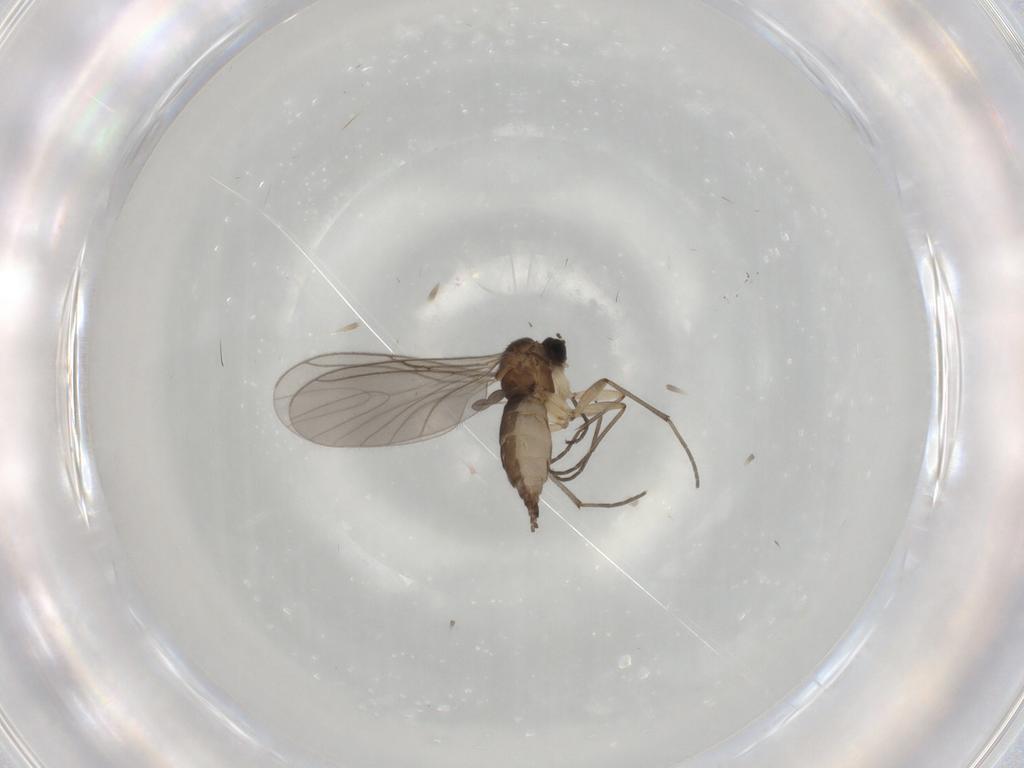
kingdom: Animalia
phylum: Arthropoda
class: Insecta
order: Diptera
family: Sciaridae
